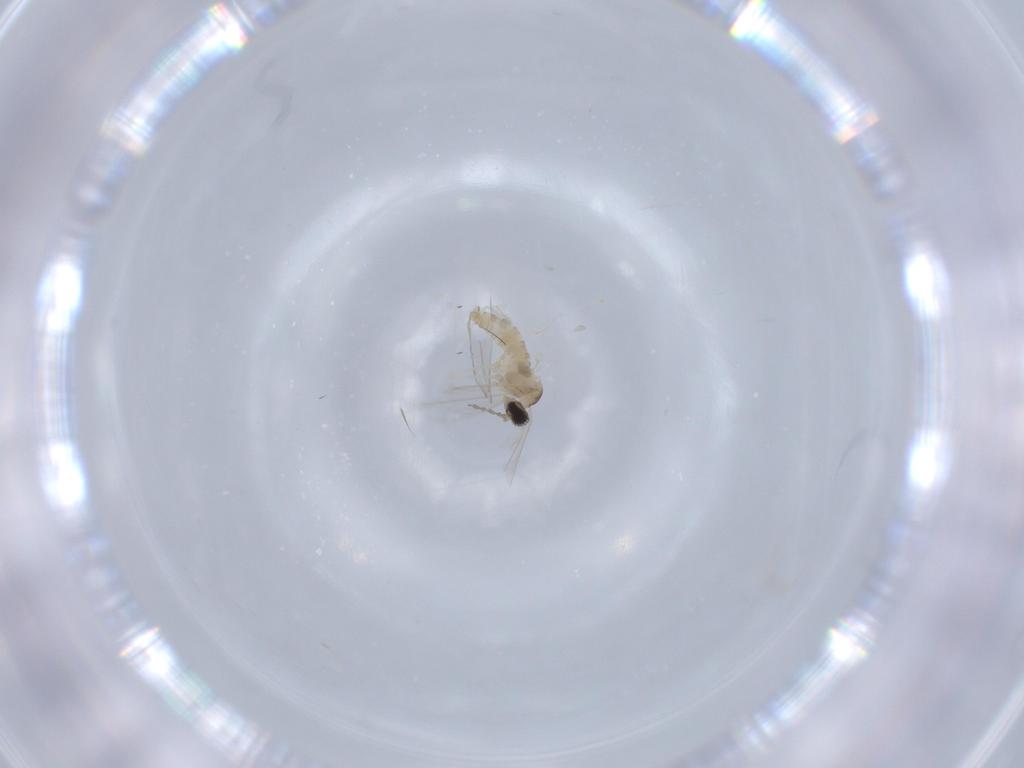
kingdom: Animalia
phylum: Arthropoda
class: Insecta
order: Diptera
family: Cecidomyiidae
